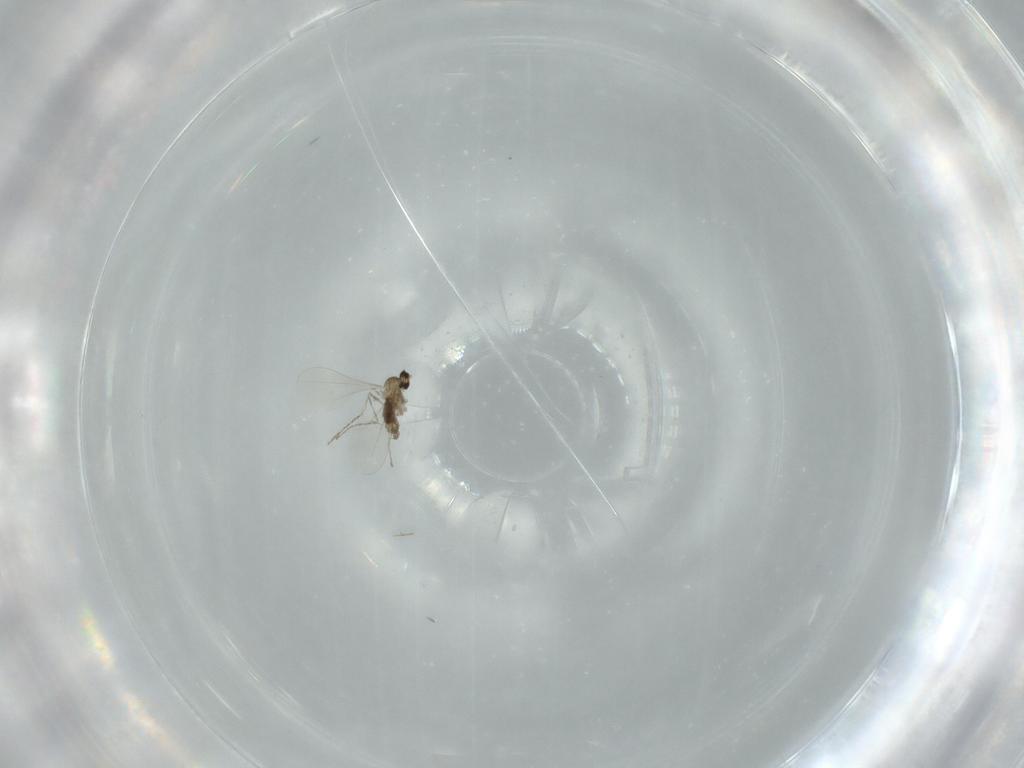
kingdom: Animalia
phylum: Arthropoda
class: Insecta
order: Diptera
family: Cecidomyiidae
